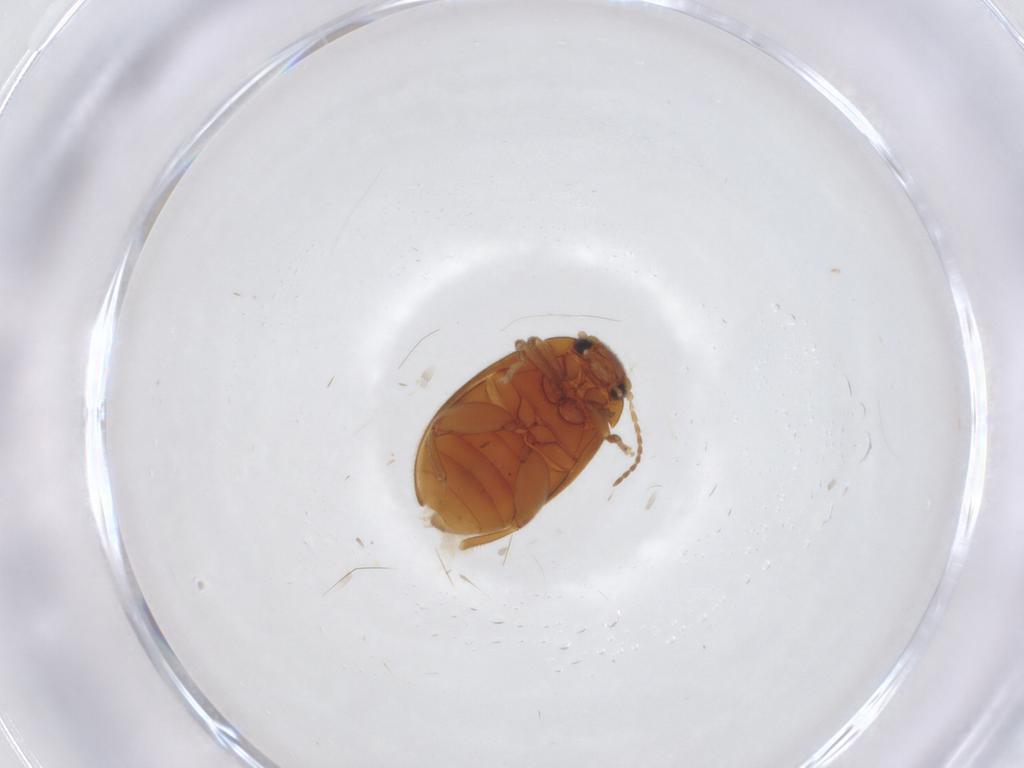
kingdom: Animalia
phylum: Arthropoda
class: Insecta
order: Coleoptera
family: Scirtidae
